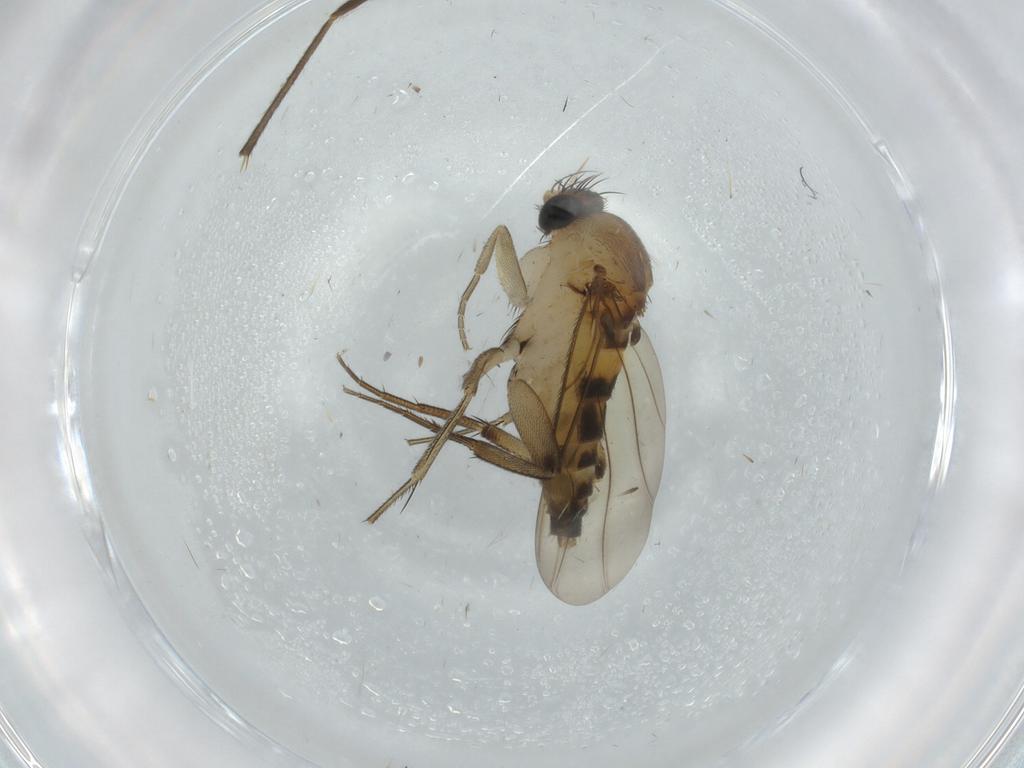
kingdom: Animalia
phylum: Arthropoda
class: Insecta
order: Diptera
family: Phoridae
